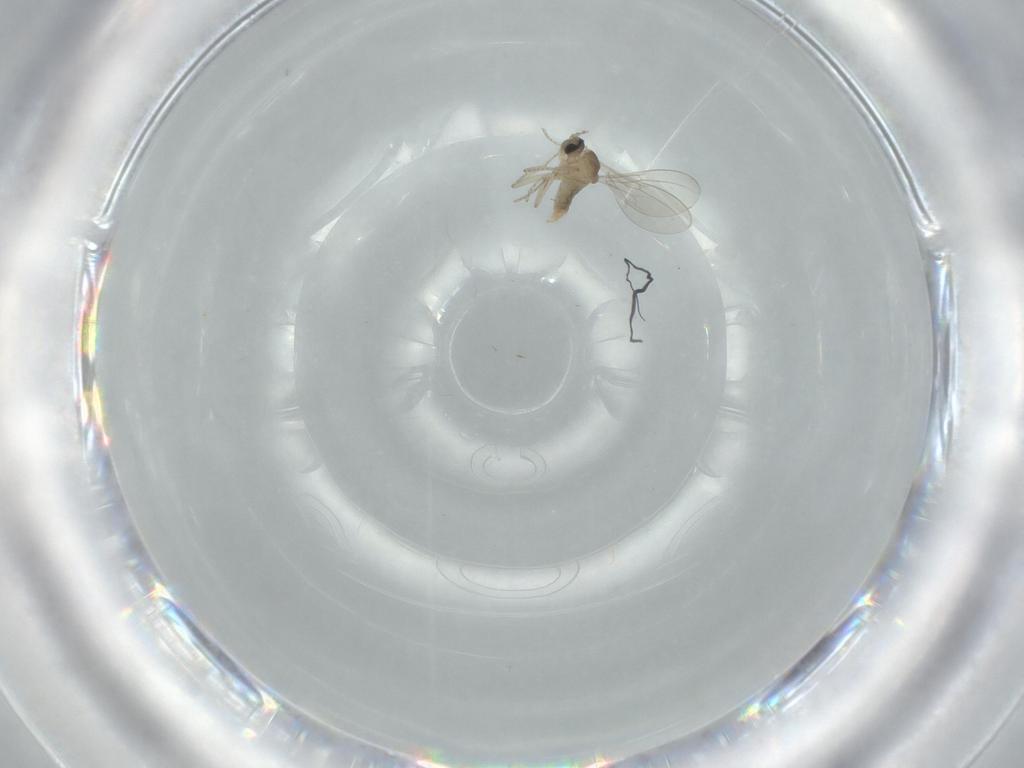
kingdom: Animalia
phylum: Arthropoda
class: Insecta
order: Diptera
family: Cecidomyiidae
